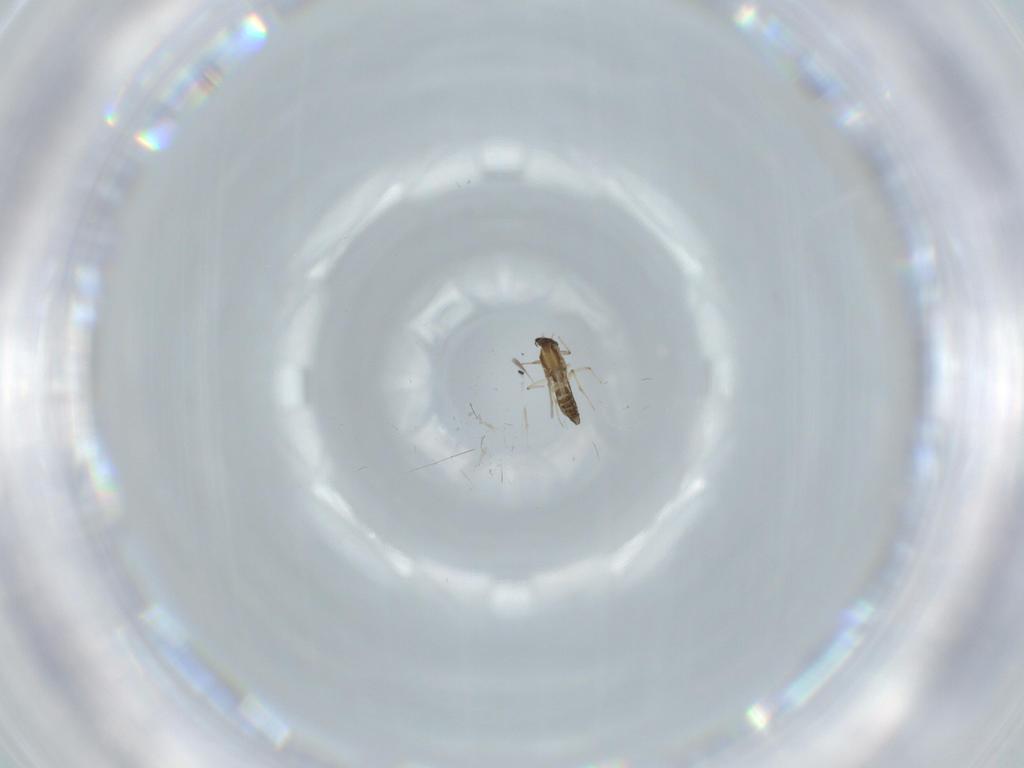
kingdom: Animalia
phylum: Arthropoda
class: Insecta
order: Diptera
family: Chironomidae
